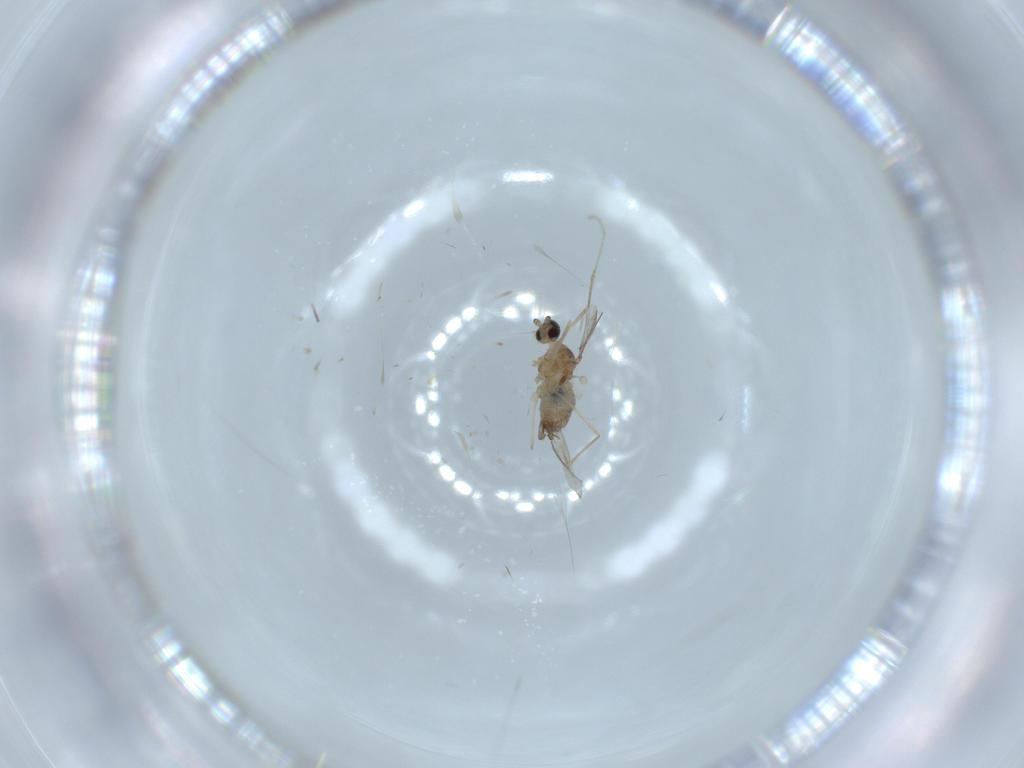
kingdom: Animalia
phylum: Arthropoda
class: Insecta
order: Diptera
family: Cecidomyiidae
